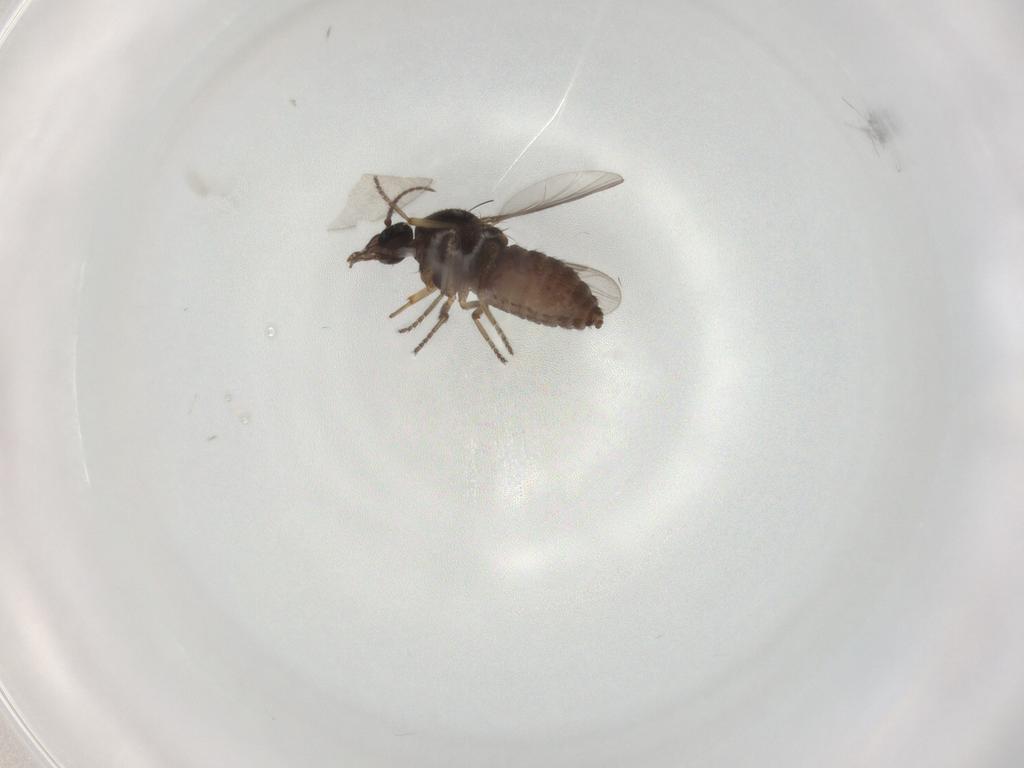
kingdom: Animalia
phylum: Arthropoda
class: Insecta
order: Diptera
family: Ceratopogonidae
